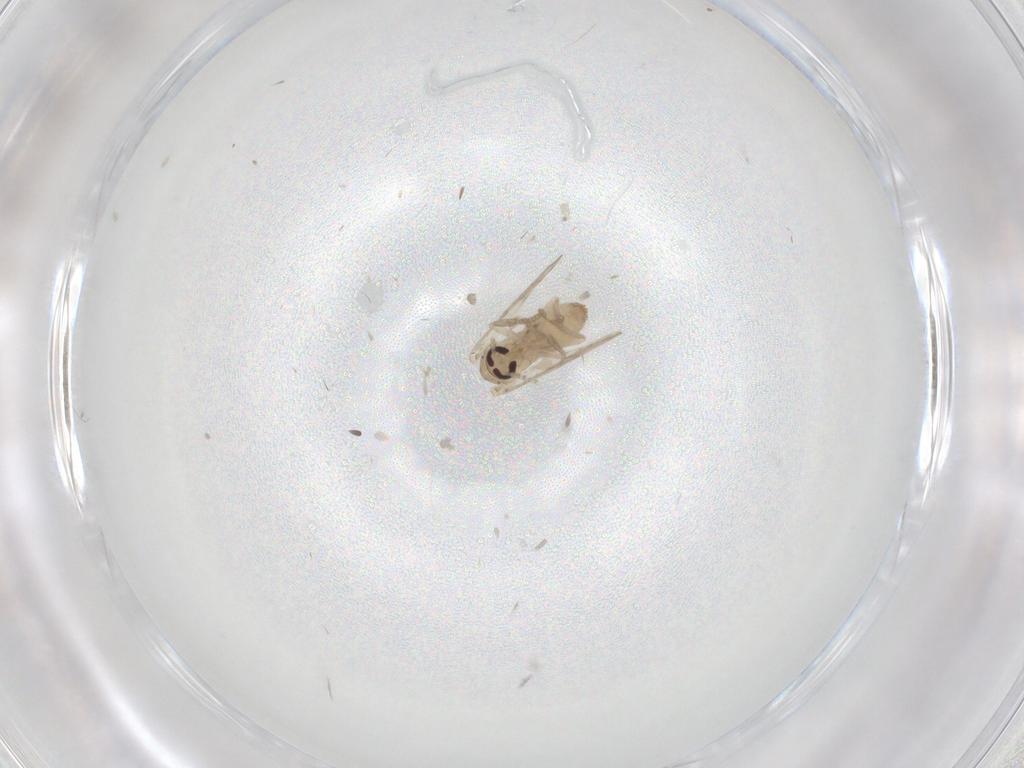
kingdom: Animalia
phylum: Arthropoda
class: Insecta
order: Diptera
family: Psychodidae
